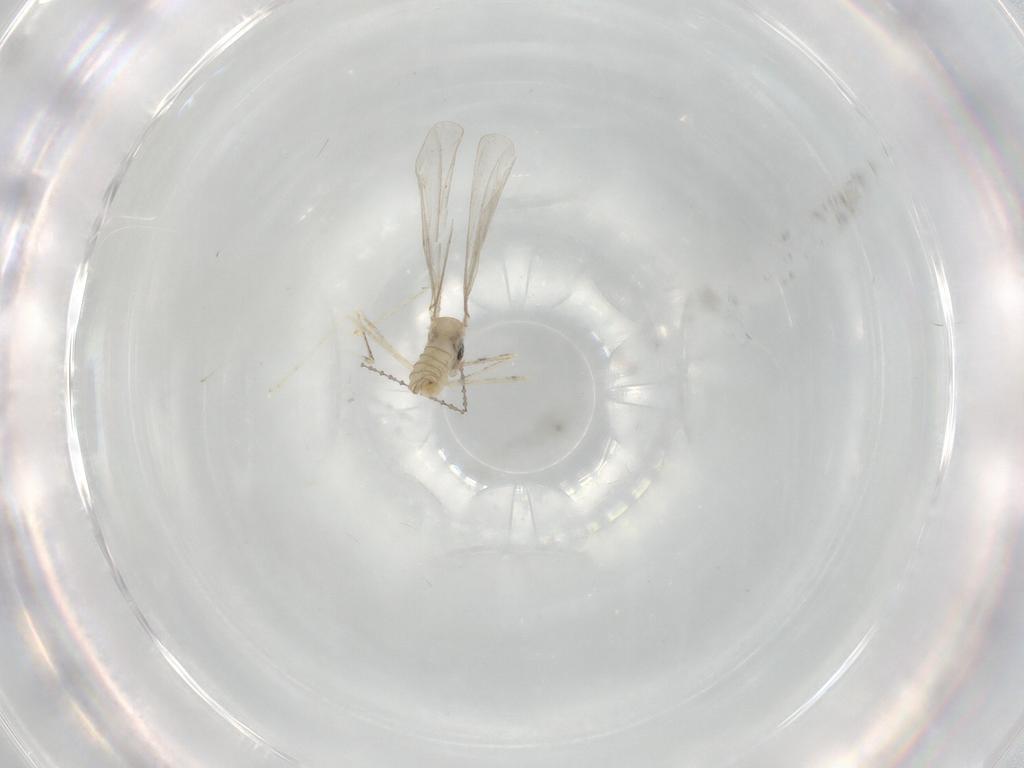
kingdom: Animalia
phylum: Arthropoda
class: Insecta
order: Diptera
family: Cecidomyiidae
